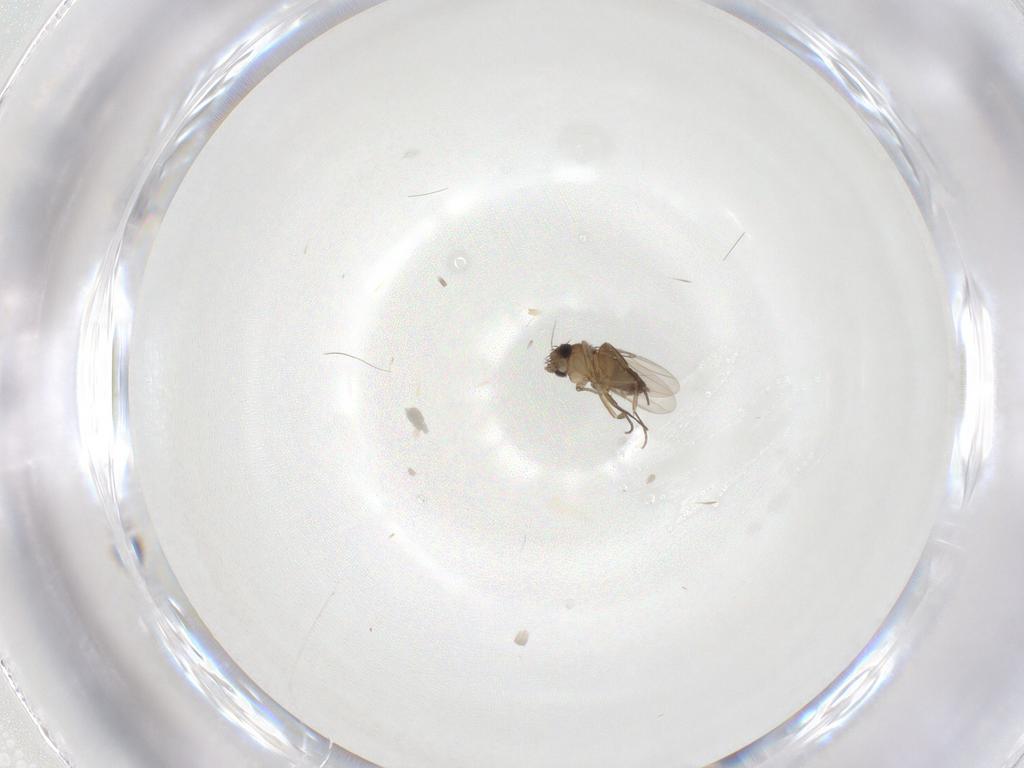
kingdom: Animalia
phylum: Arthropoda
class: Insecta
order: Diptera
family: Phoridae
